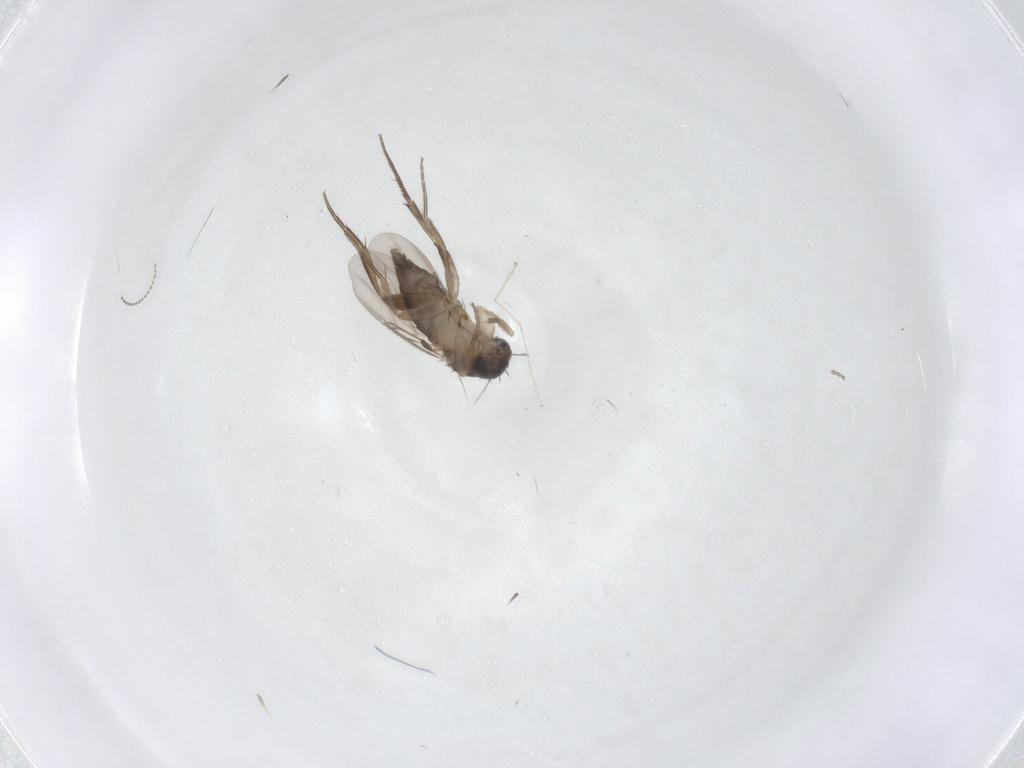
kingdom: Animalia
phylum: Arthropoda
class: Insecta
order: Diptera
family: Phoridae
